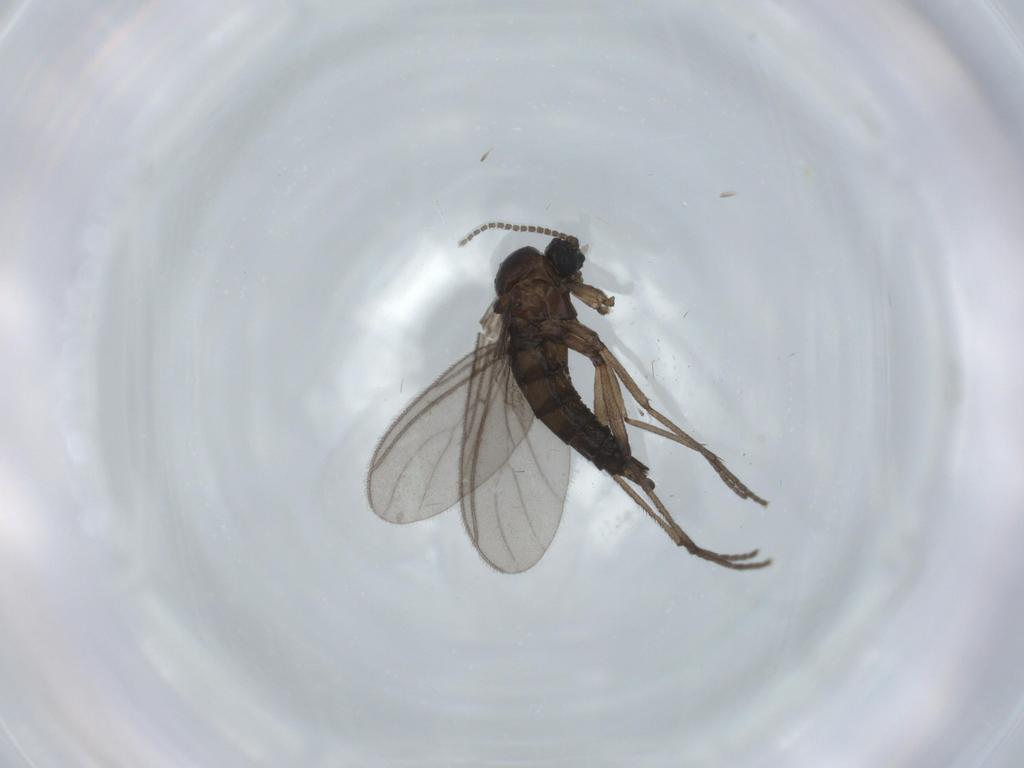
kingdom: Animalia
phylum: Arthropoda
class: Insecta
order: Diptera
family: Sciaridae
